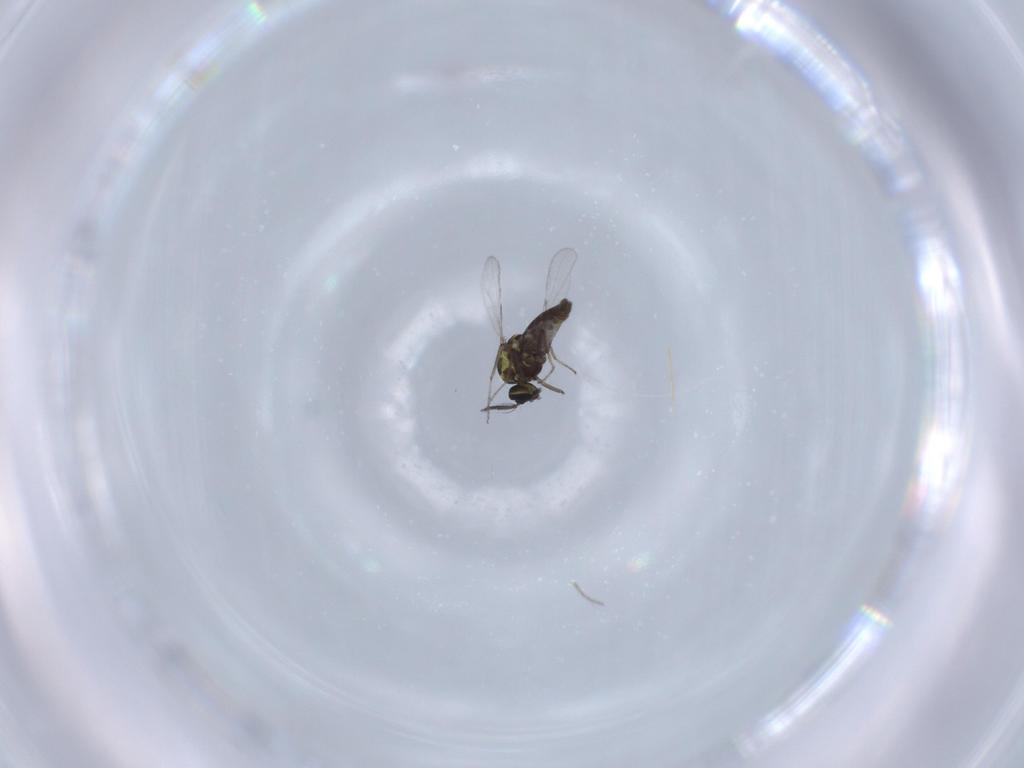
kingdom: Animalia
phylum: Arthropoda
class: Insecta
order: Diptera
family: Ceratopogonidae
